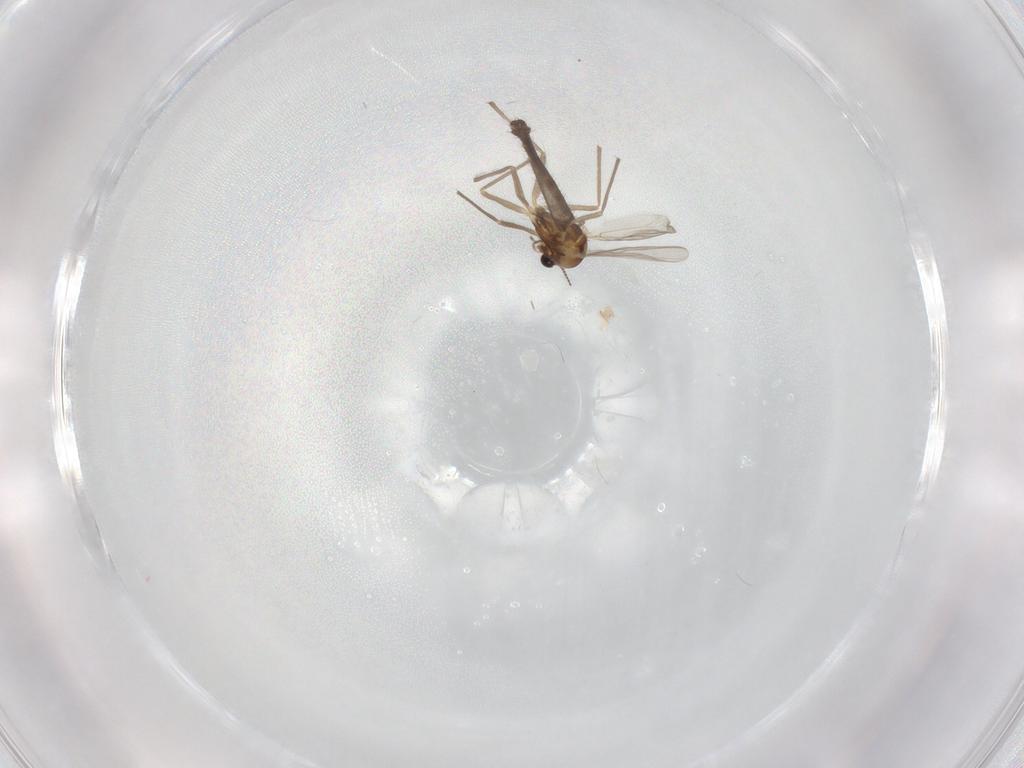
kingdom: Animalia
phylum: Arthropoda
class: Insecta
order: Diptera
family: Chironomidae
